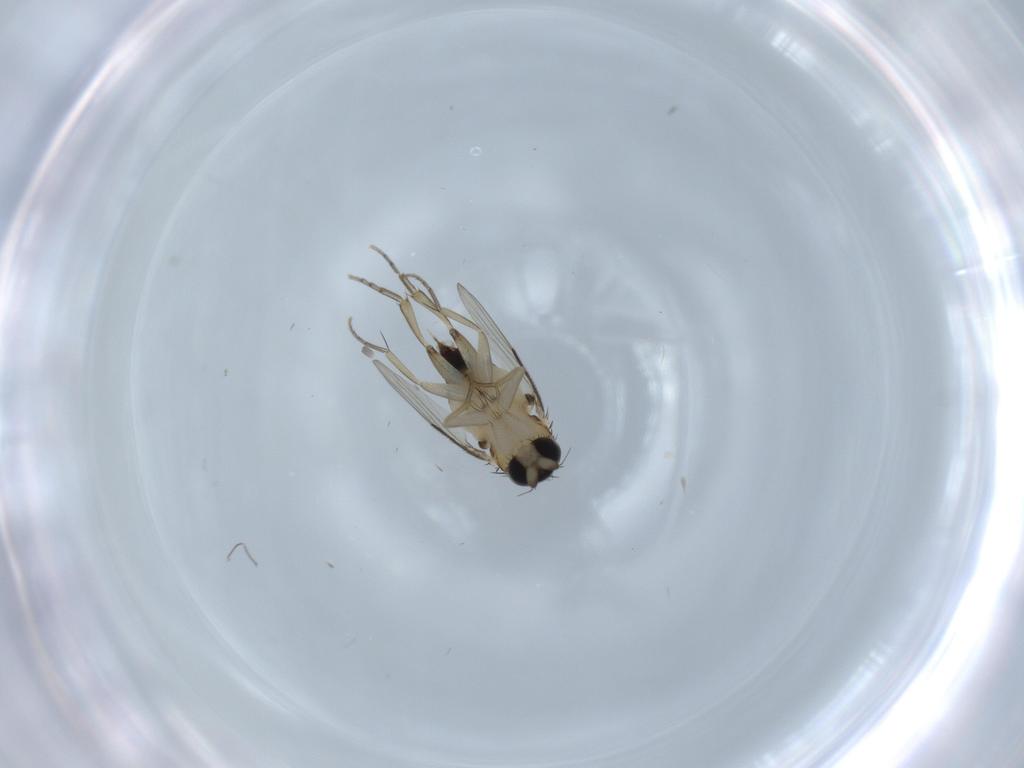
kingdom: Animalia
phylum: Arthropoda
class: Insecta
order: Diptera
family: Phoridae
